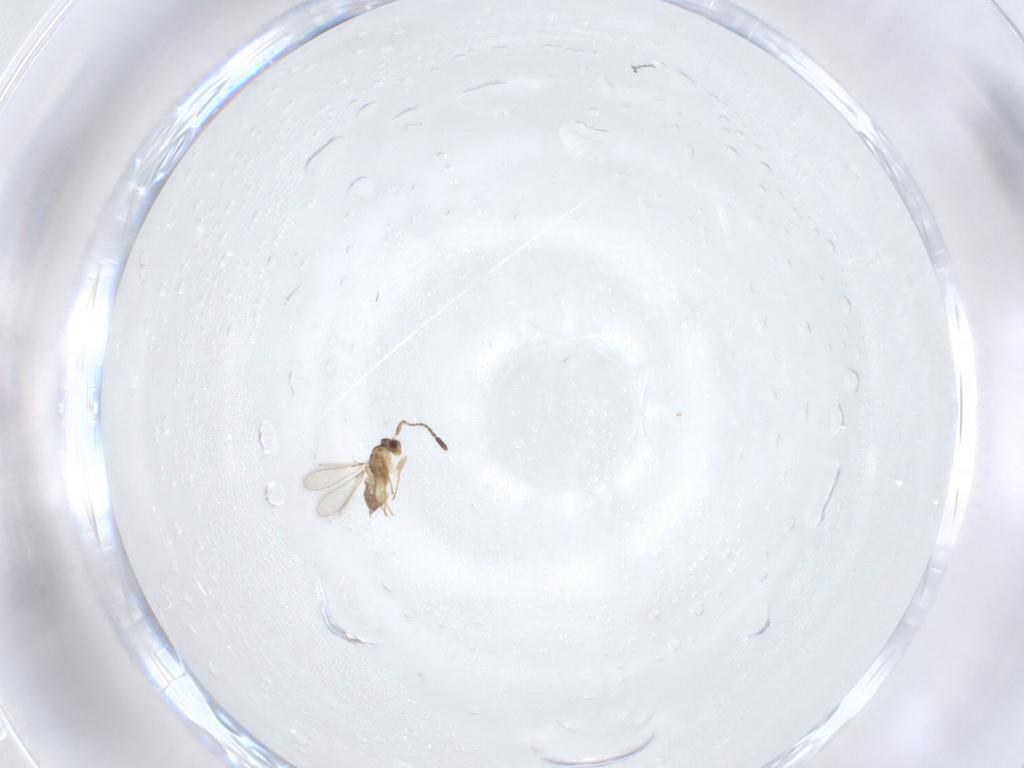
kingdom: Animalia
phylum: Arthropoda
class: Insecta
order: Hymenoptera
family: Mymaridae
